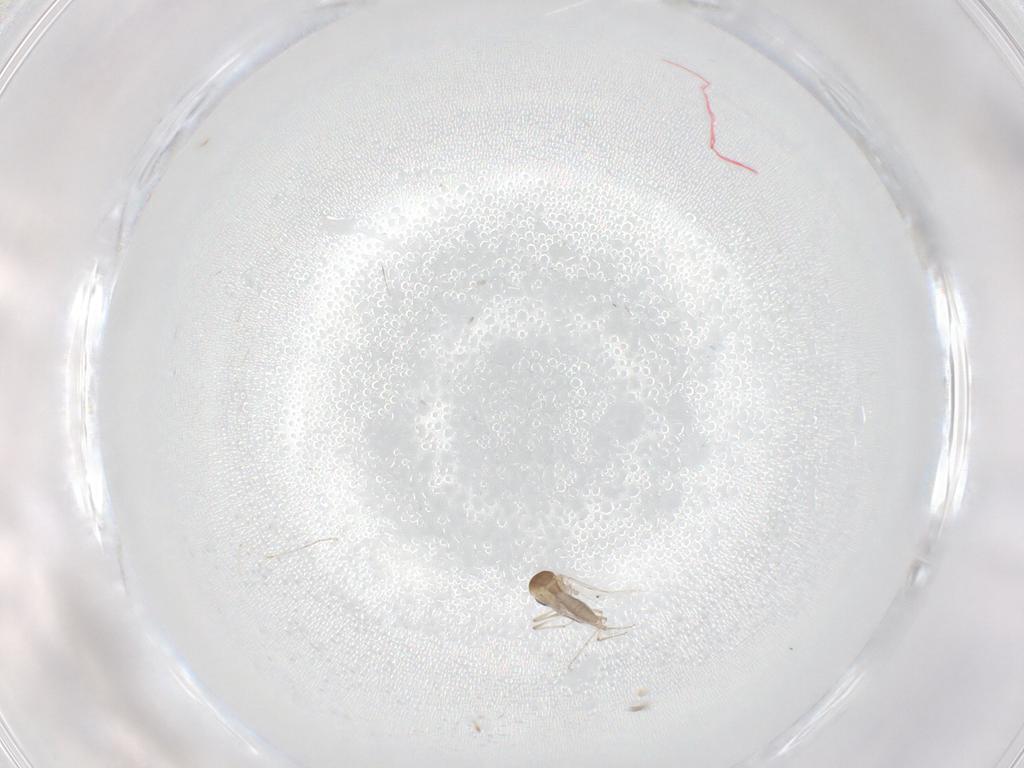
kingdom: Animalia
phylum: Arthropoda
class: Insecta
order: Diptera
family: Cecidomyiidae
